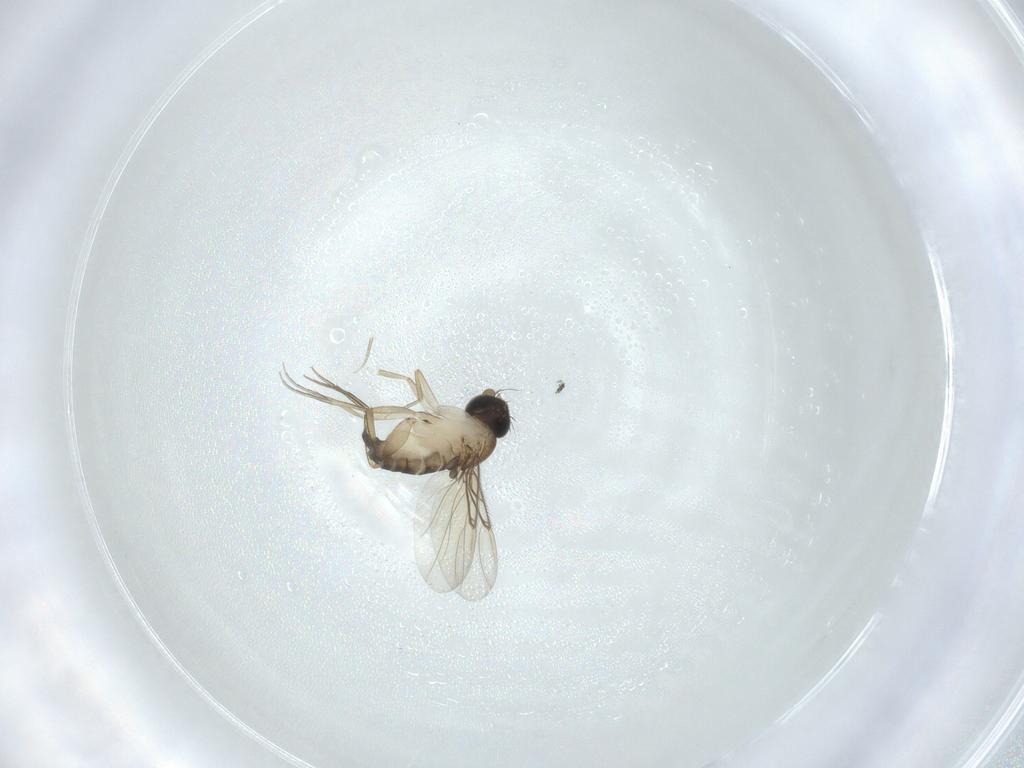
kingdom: Animalia
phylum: Arthropoda
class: Insecta
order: Diptera
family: Phoridae
